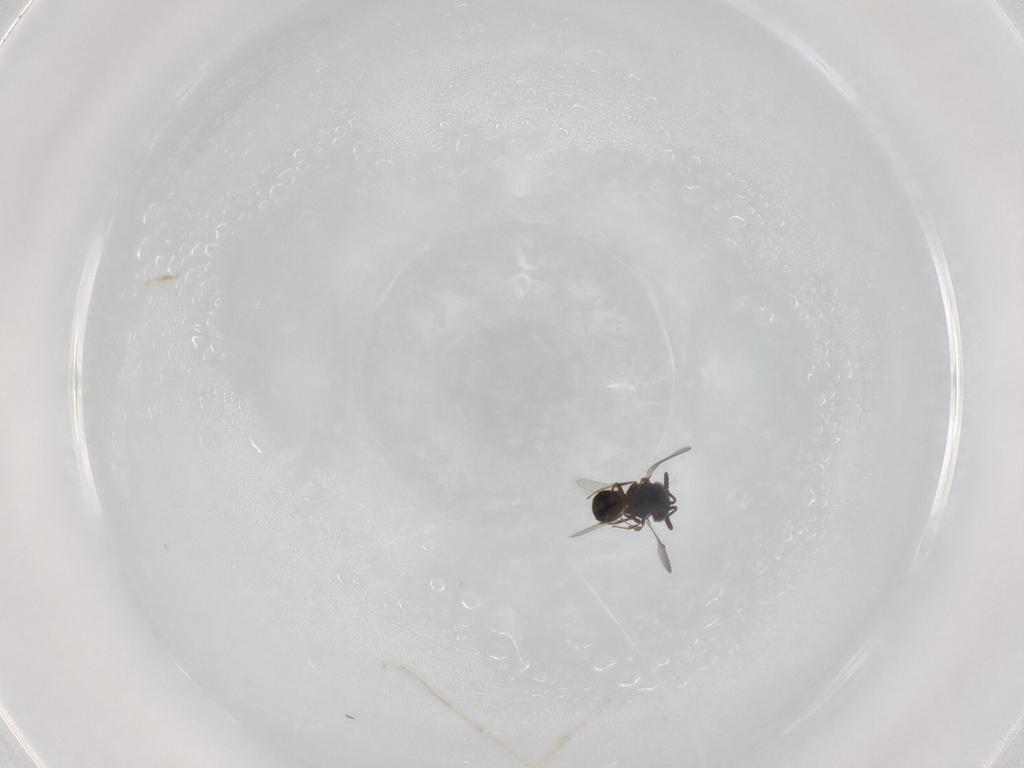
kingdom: Animalia
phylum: Arthropoda
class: Insecta
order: Hymenoptera
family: Scelionidae
